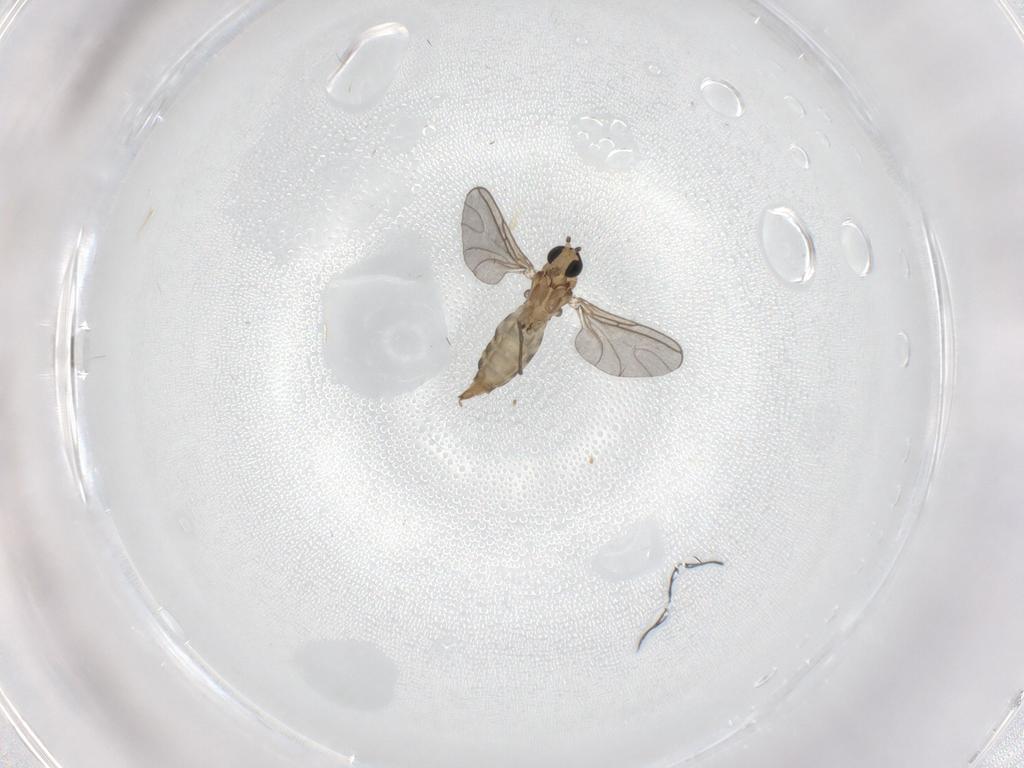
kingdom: Animalia
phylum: Arthropoda
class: Insecta
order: Diptera
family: Sciaridae
